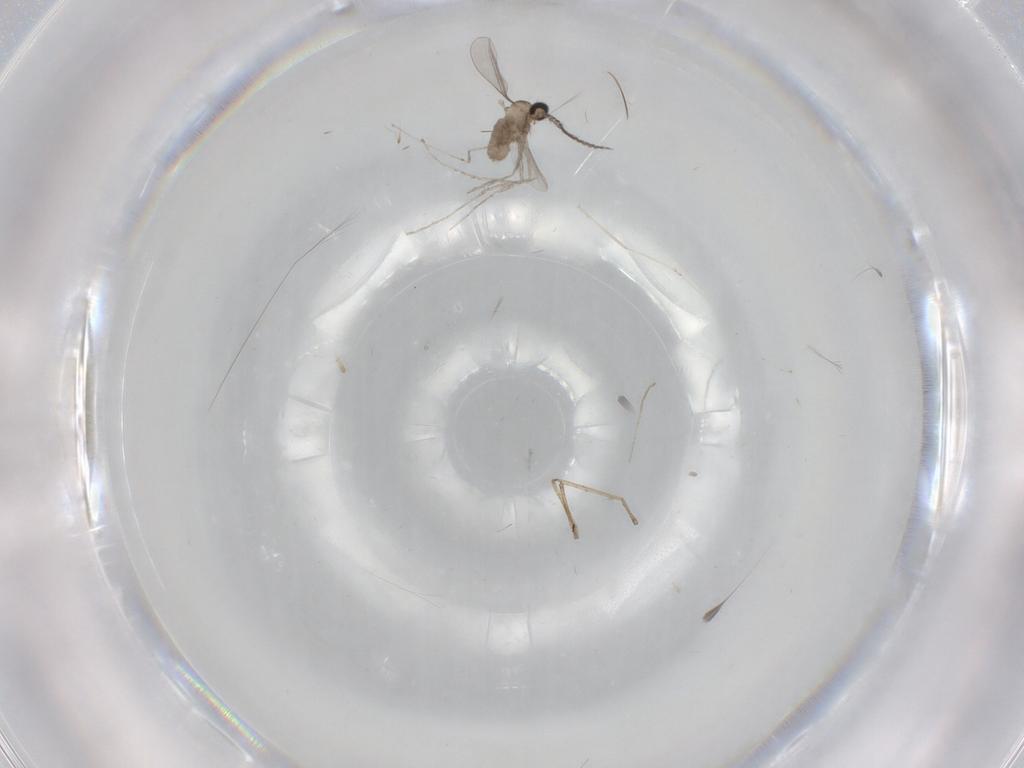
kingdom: Animalia
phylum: Arthropoda
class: Insecta
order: Diptera
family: Cecidomyiidae
